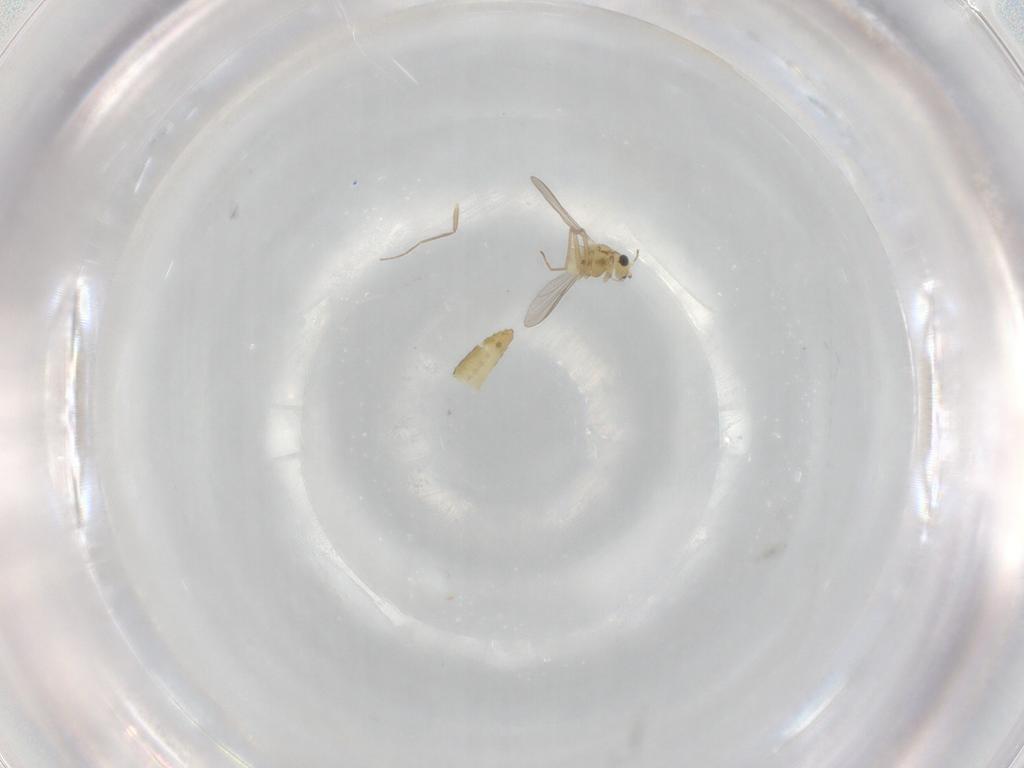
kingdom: Animalia
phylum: Arthropoda
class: Insecta
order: Diptera
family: Chironomidae
